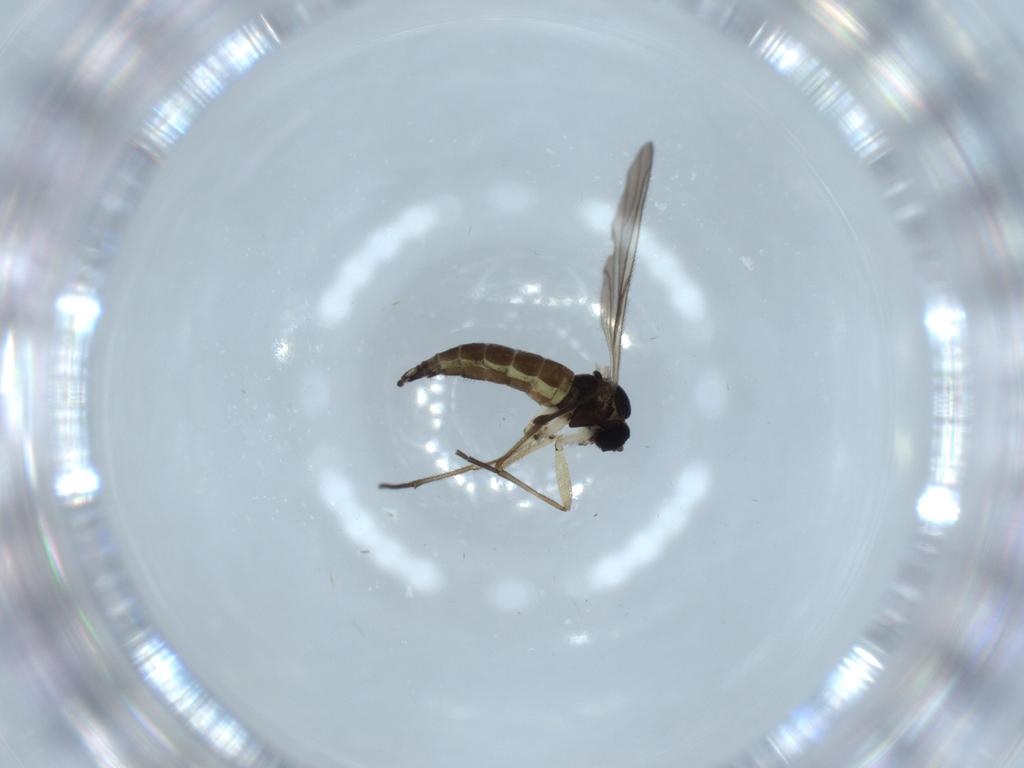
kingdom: Animalia
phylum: Arthropoda
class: Insecta
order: Diptera
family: Sciaridae
